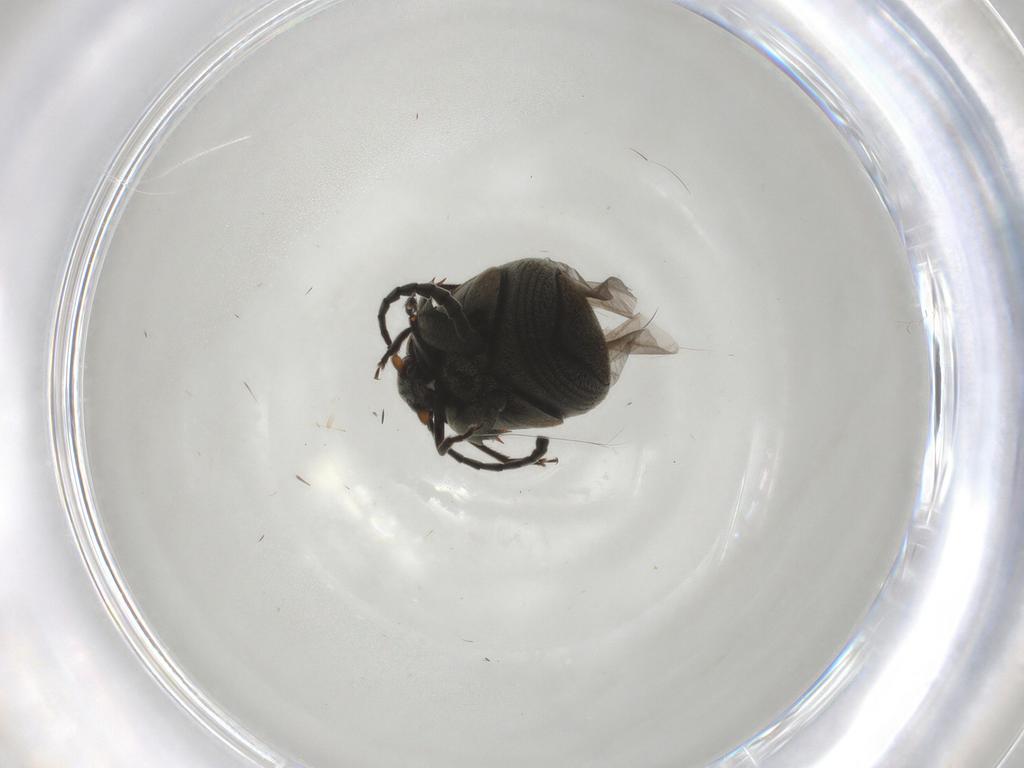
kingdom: Animalia
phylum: Arthropoda
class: Insecta
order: Coleoptera
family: Chrysomelidae
